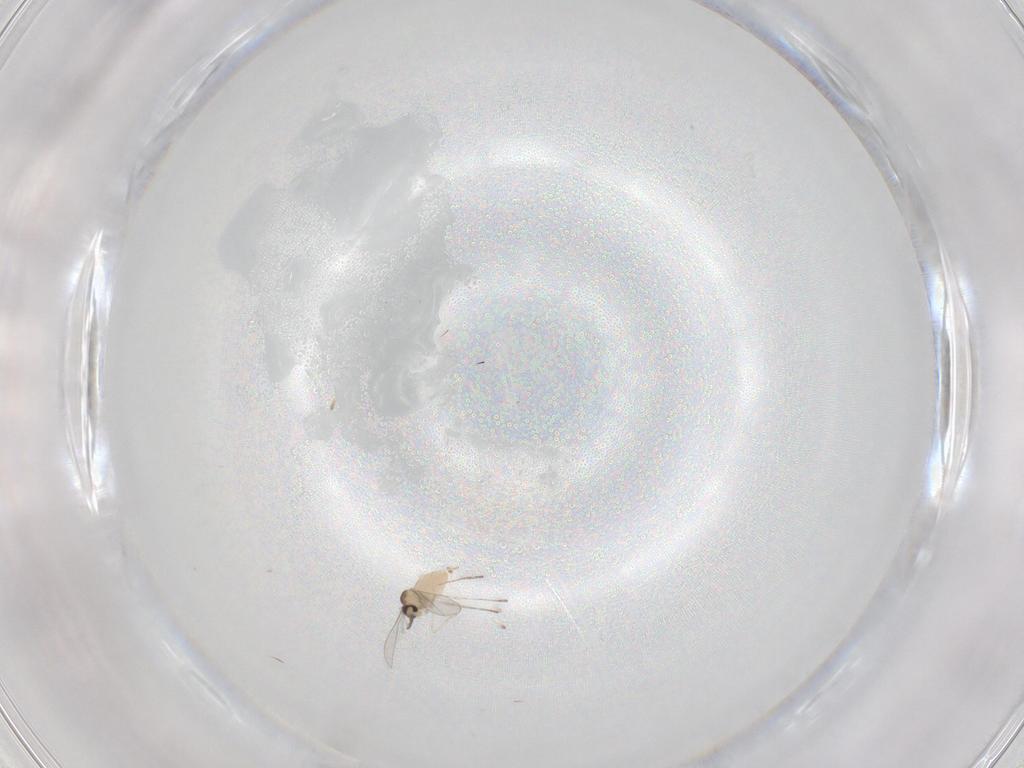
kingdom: Animalia
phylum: Arthropoda
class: Insecta
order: Diptera
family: Cecidomyiidae
